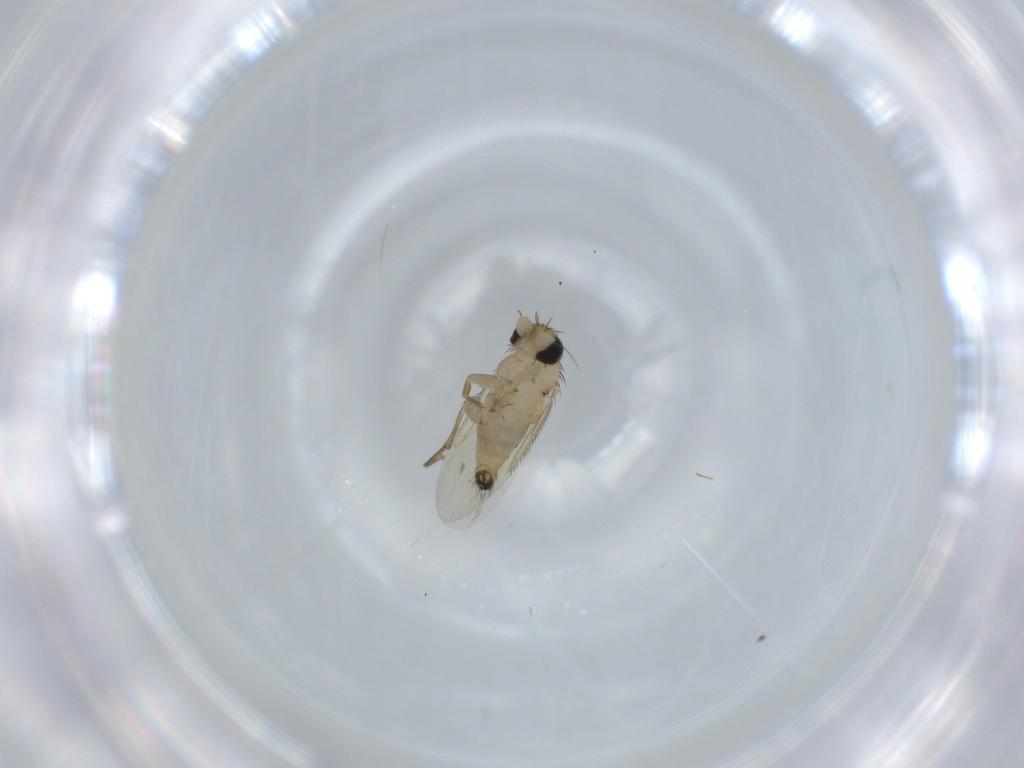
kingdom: Animalia
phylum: Arthropoda
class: Insecta
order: Diptera
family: Phoridae
